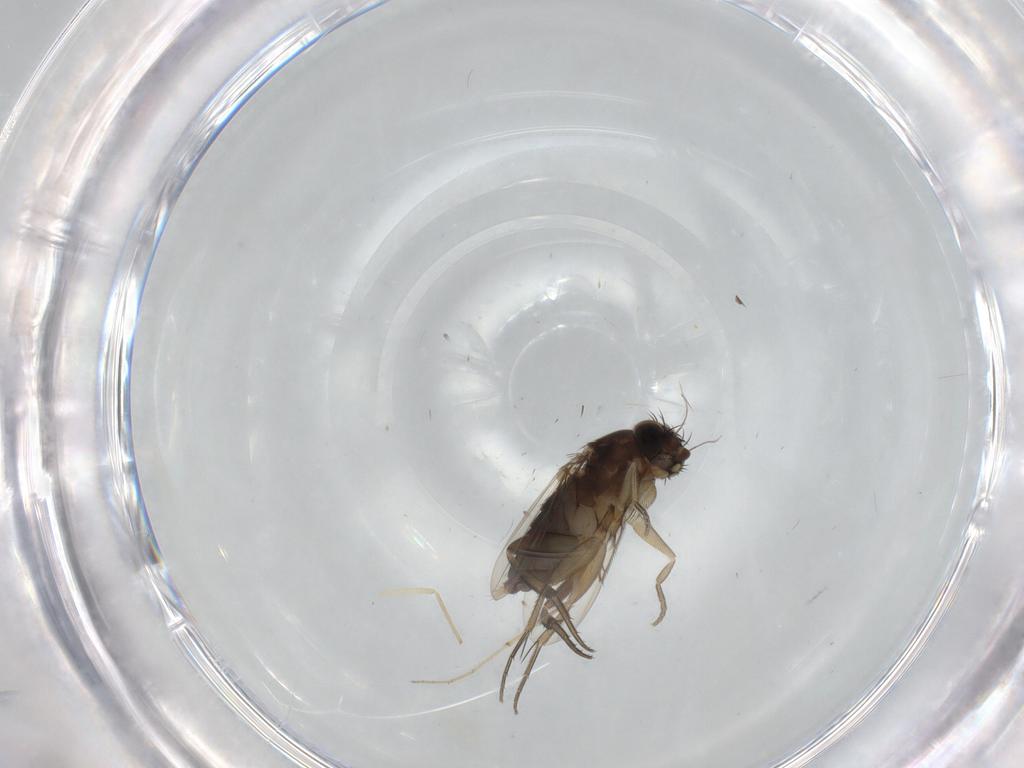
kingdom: Animalia
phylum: Arthropoda
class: Insecta
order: Diptera
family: Phoridae
